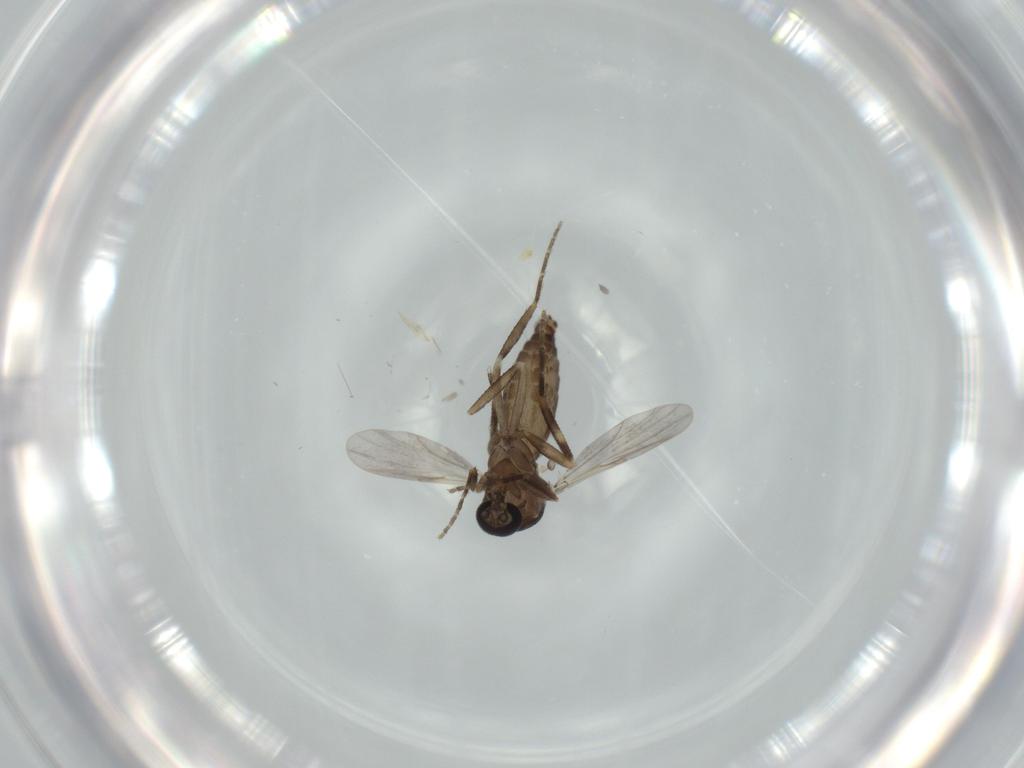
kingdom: Animalia
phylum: Arthropoda
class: Insecta
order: Diptera
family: Ceratopogonidae
